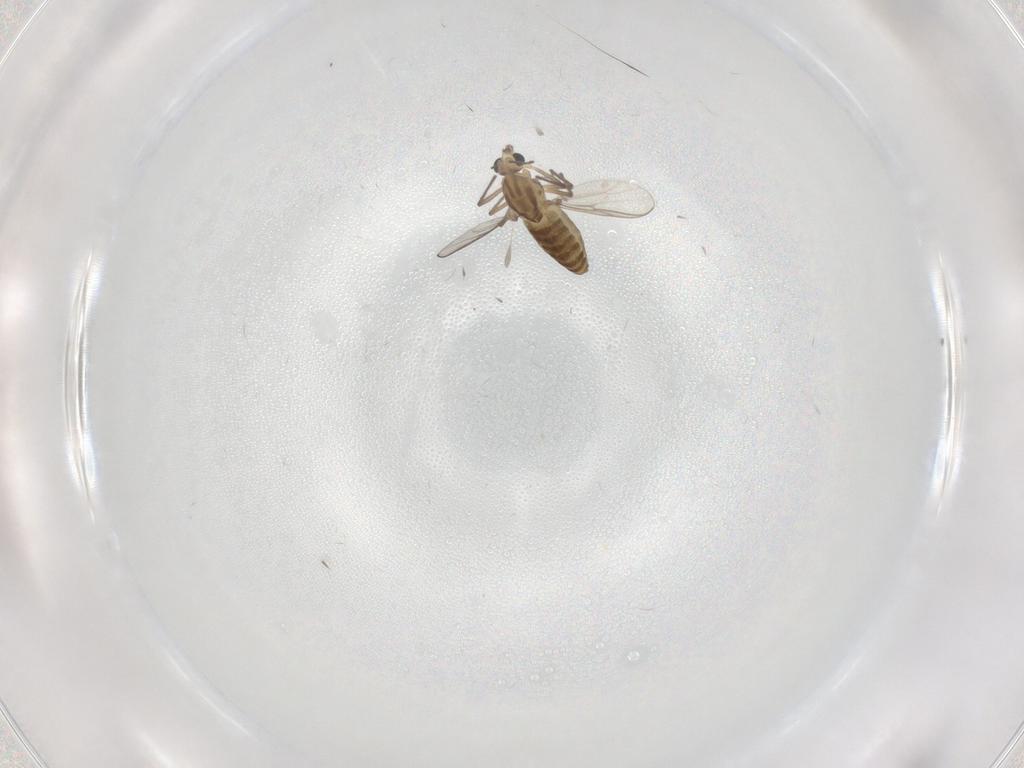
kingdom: Animalia
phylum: Arthropoda
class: Insecta
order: Diptera
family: Chironomidae
